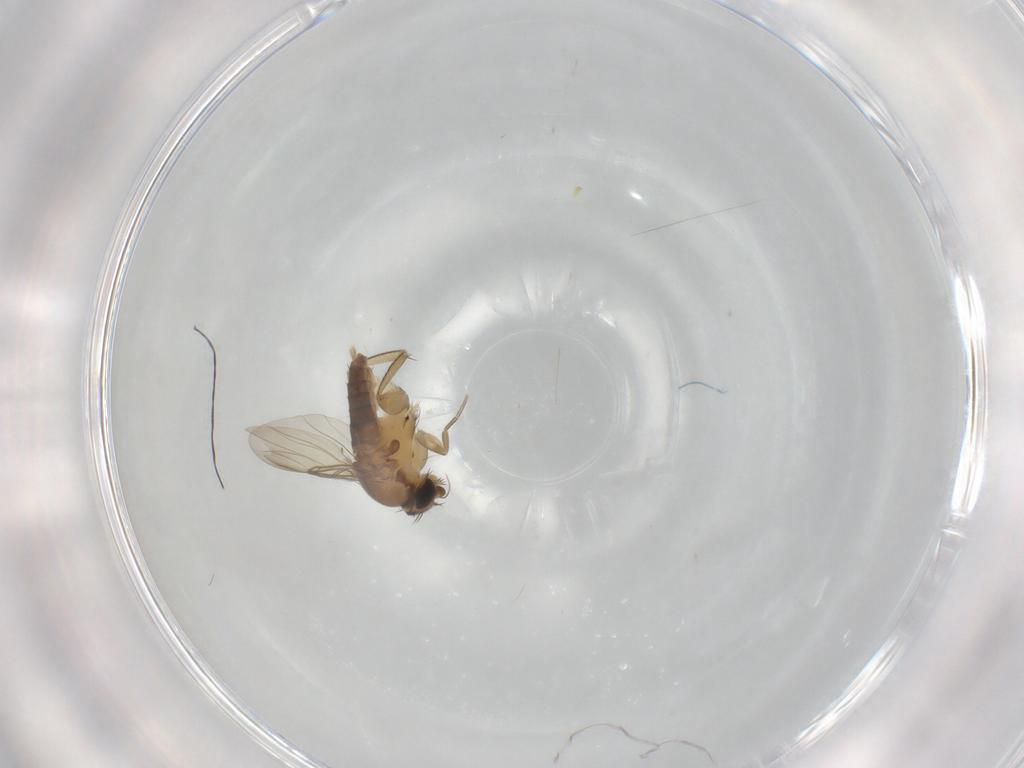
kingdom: Animalia
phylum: Arthropoda
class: Insecta
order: Diptera
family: Phoridae
